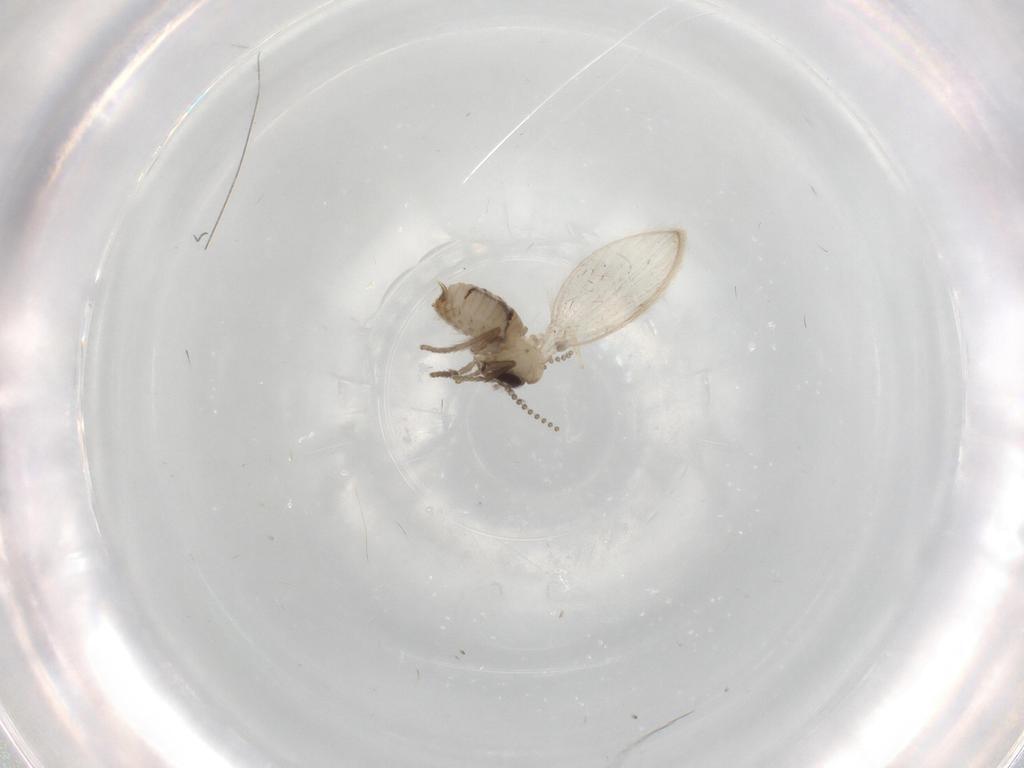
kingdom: Animalia
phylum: Arthropoda
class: Insecta
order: Diptera
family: Psychodidae
